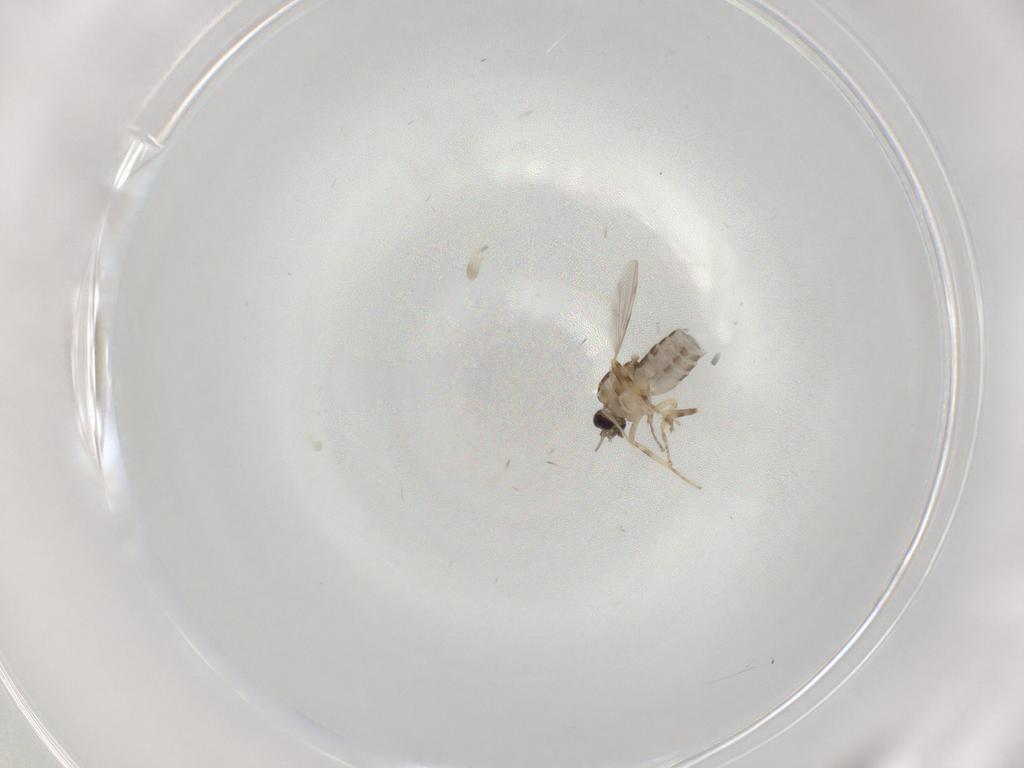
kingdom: Animalia
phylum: Arthropoda
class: Insecta
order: Diptera
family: Ceratopogonidae
